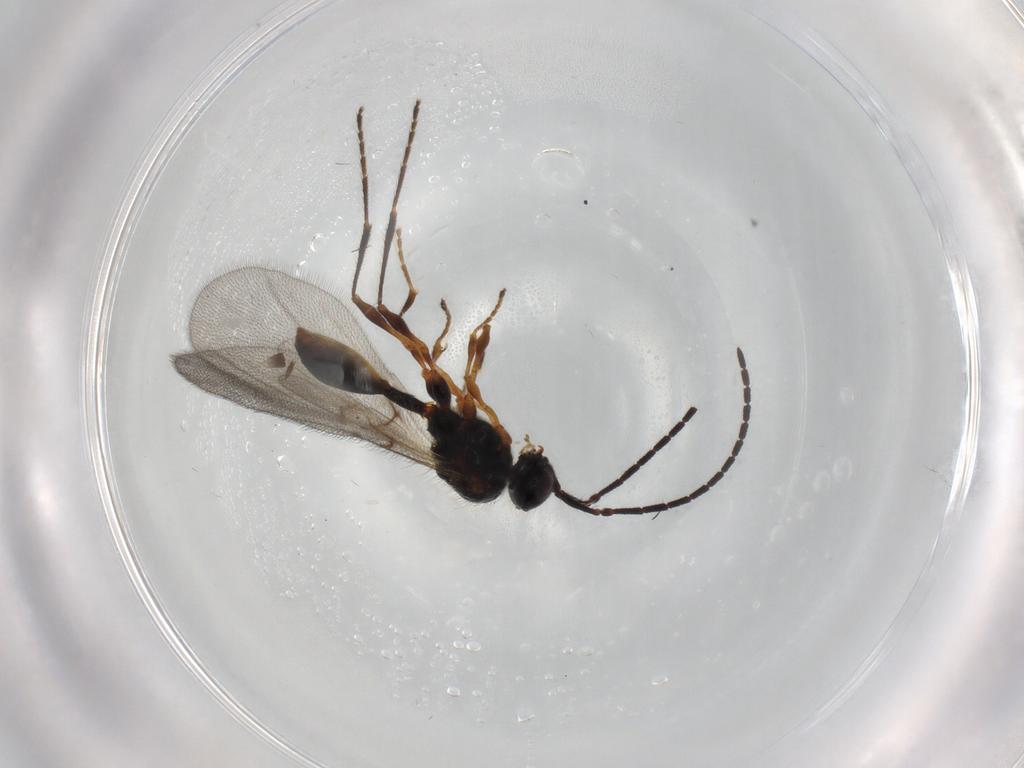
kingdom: Animalia
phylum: Arthropoda
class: Insecta
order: Hymenoptera
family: Diapriidae
